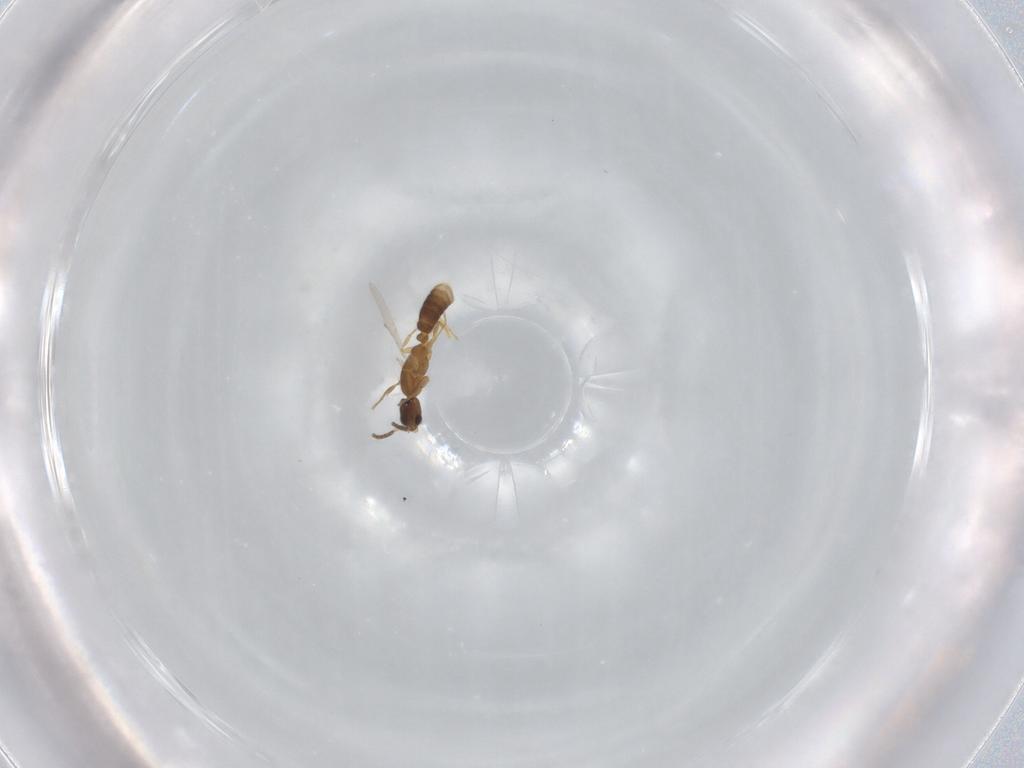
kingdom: Animalia
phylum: Arthropoda
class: Insecta
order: Hymenoptera
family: Formicidae
